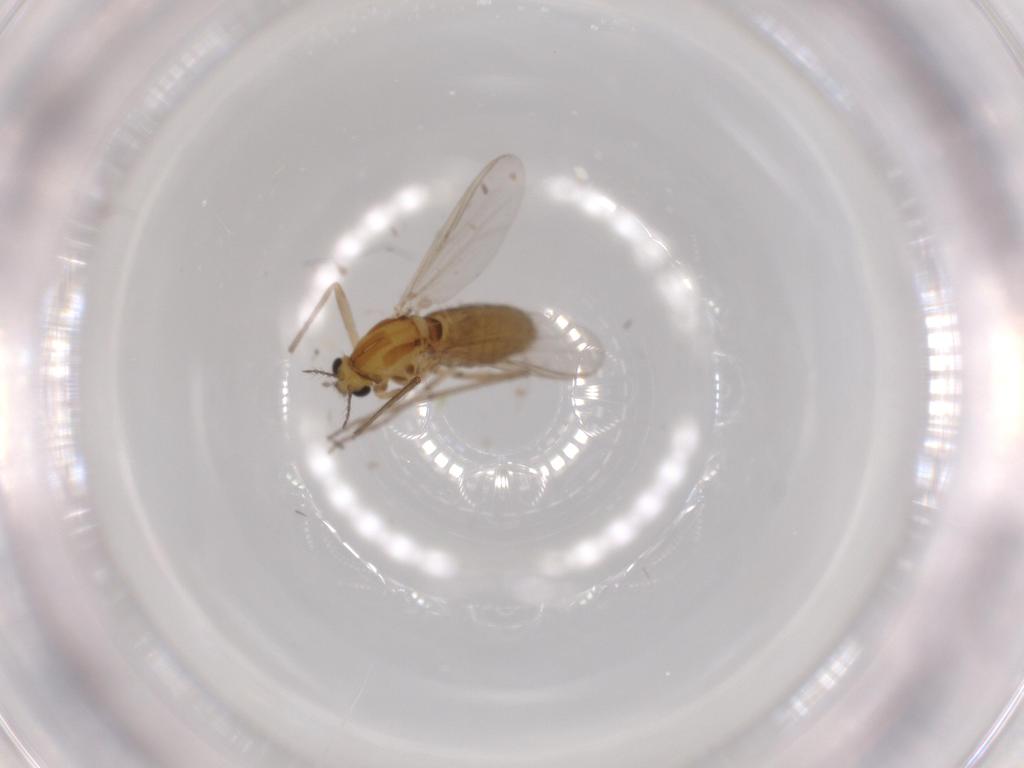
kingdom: Animalia
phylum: Arthropoda
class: Insecta
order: Diptera
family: Chironomidae
